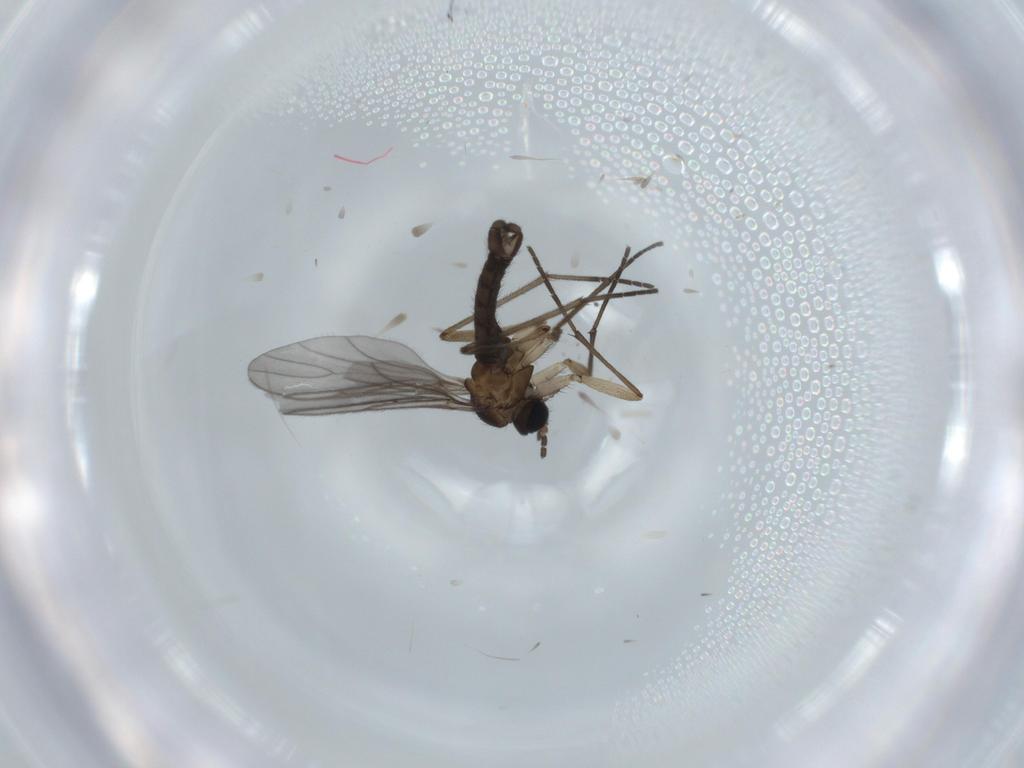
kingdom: Animalia
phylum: Arthropoda
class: Insecta
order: Diptera
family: Sciaridae
